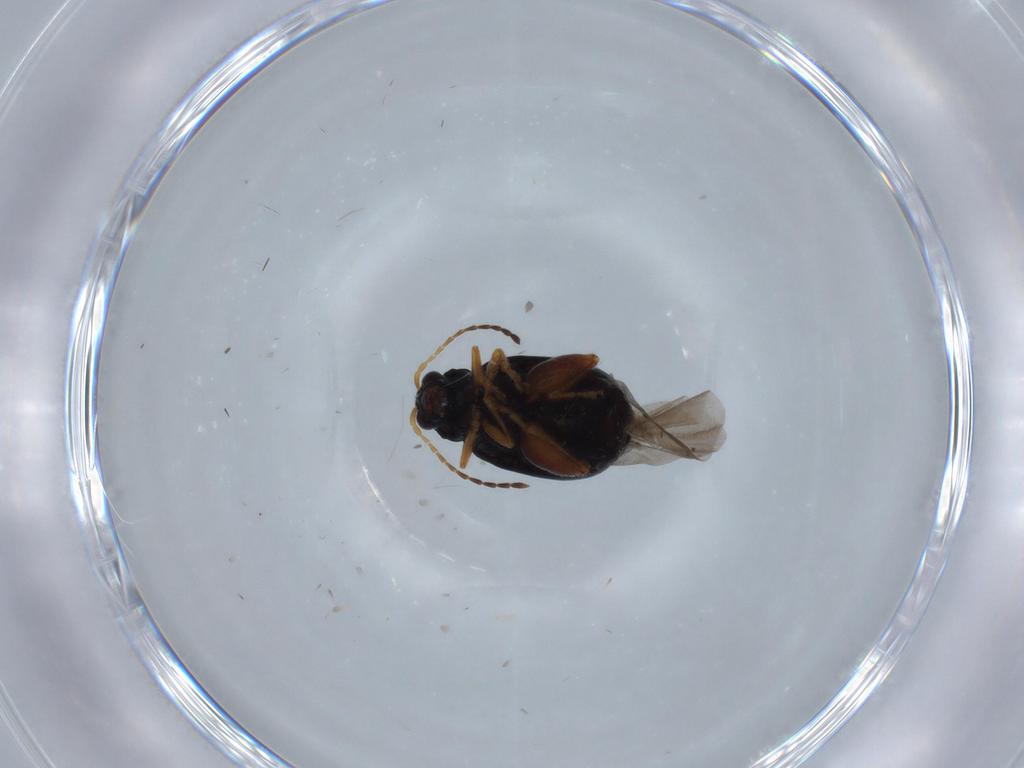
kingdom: Animalia
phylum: Arthropoda
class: Insecta
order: Coleoptera
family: Chrysomelidae
